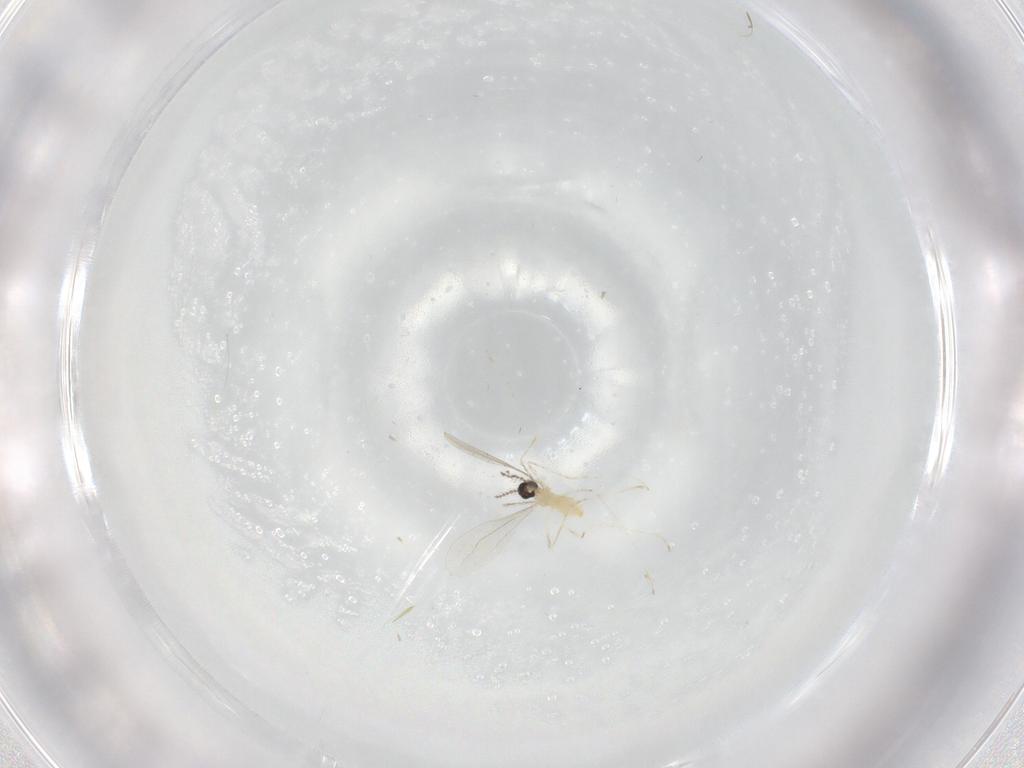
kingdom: Animalia
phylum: Arthropoda
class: Insecta
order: Diptera
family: Cecidomyiidae
